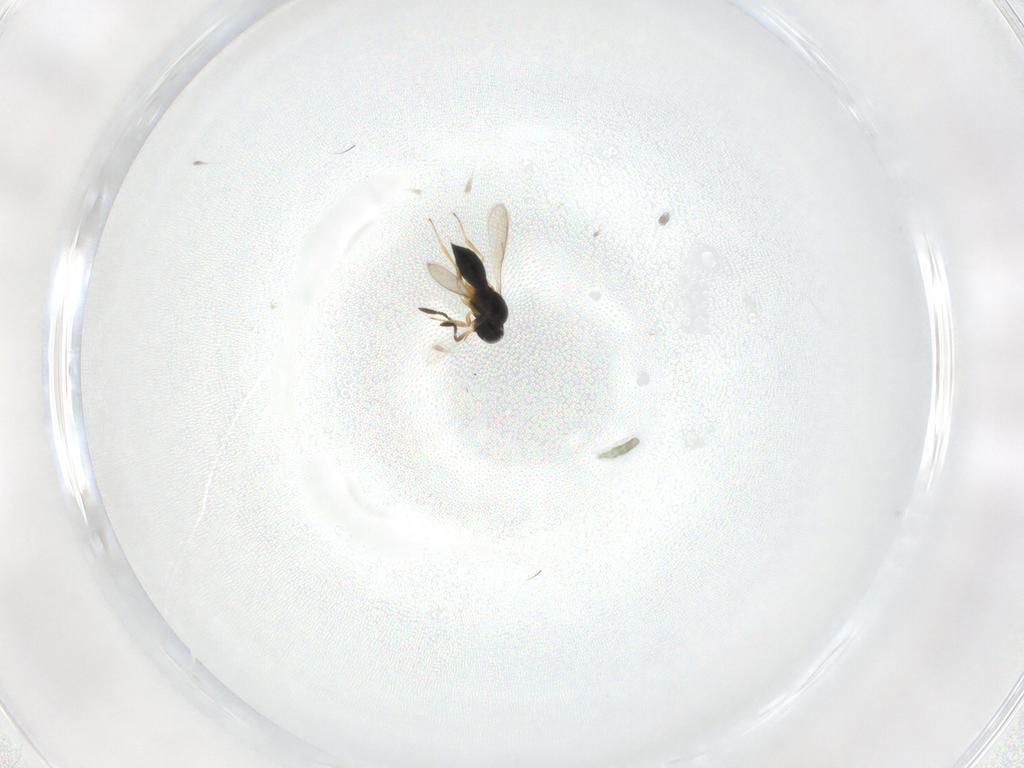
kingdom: Animalia
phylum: Arthropoda
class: Insecta
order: Hymenoptera
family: Scelionidae
